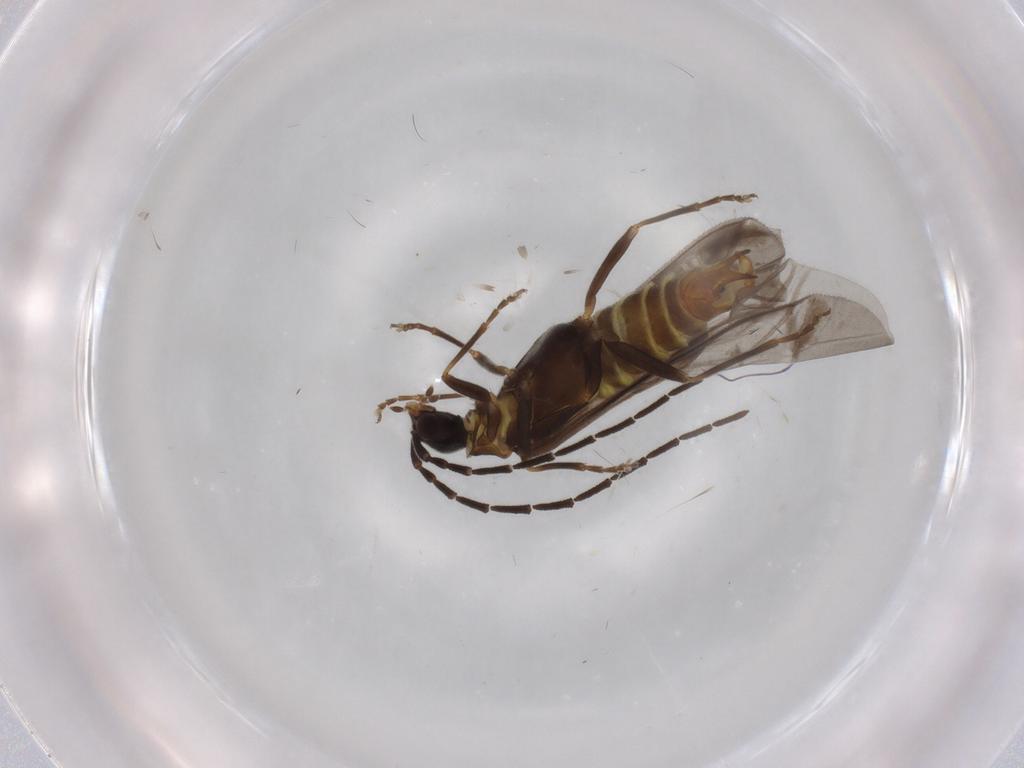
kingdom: Animalia
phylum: Arthropoda
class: Insecta
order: Coleoptera
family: Cantharidae
